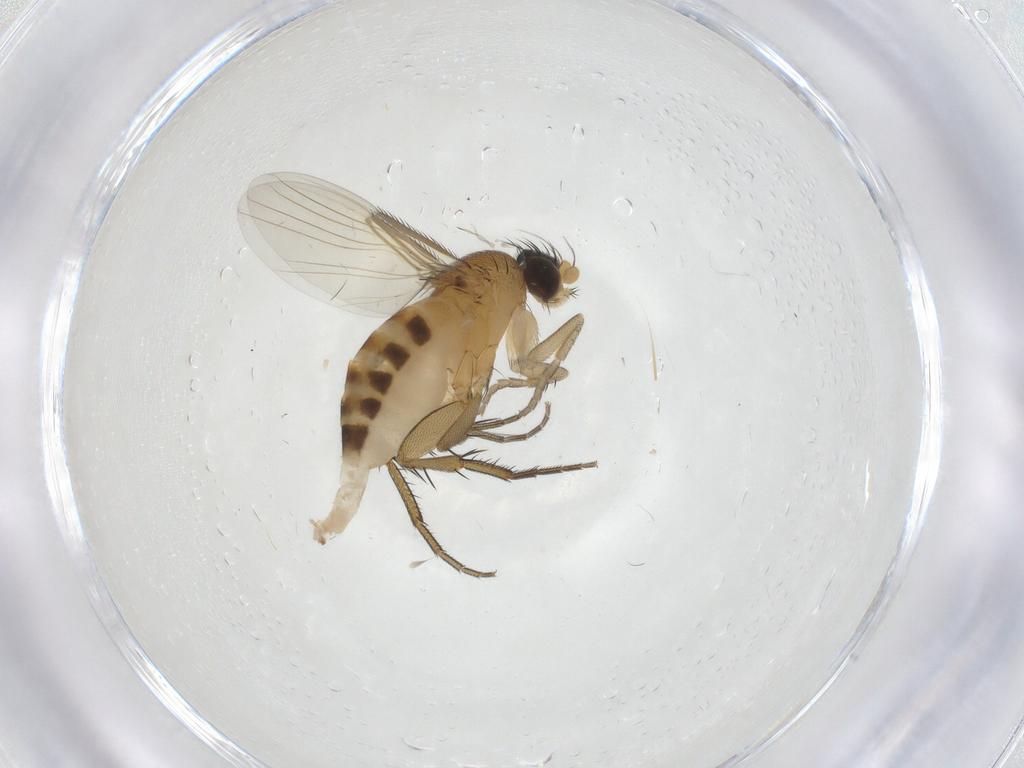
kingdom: Animalia
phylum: Arthropoda
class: Insecta
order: Diptera
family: Phoridae
